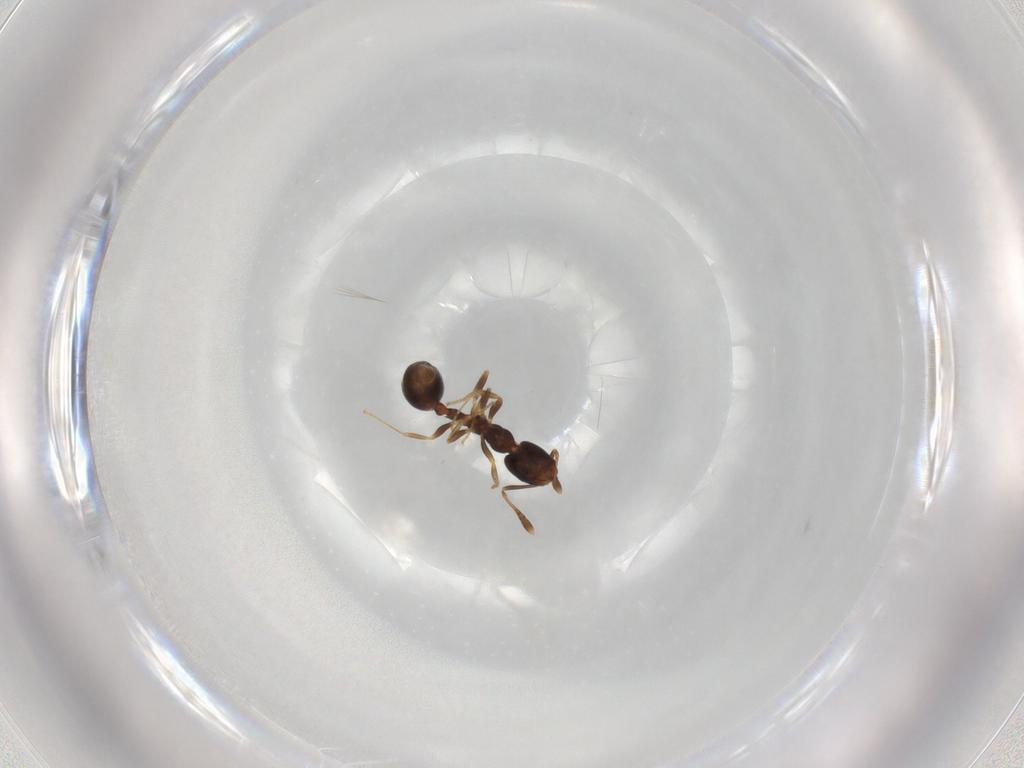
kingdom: Animalia
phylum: Arthropoda
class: Insecta
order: Hymenoptera
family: Formicidae
